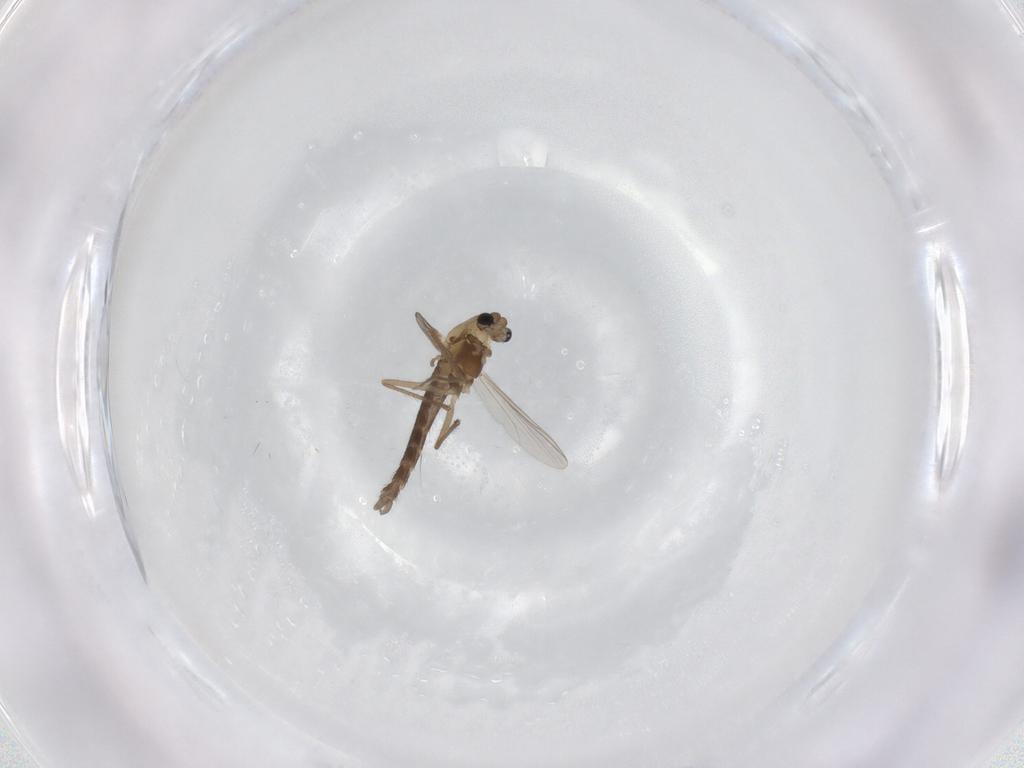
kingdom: Animalia
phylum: Arthropoda
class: Insecta
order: Diptera
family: Chironomidae
